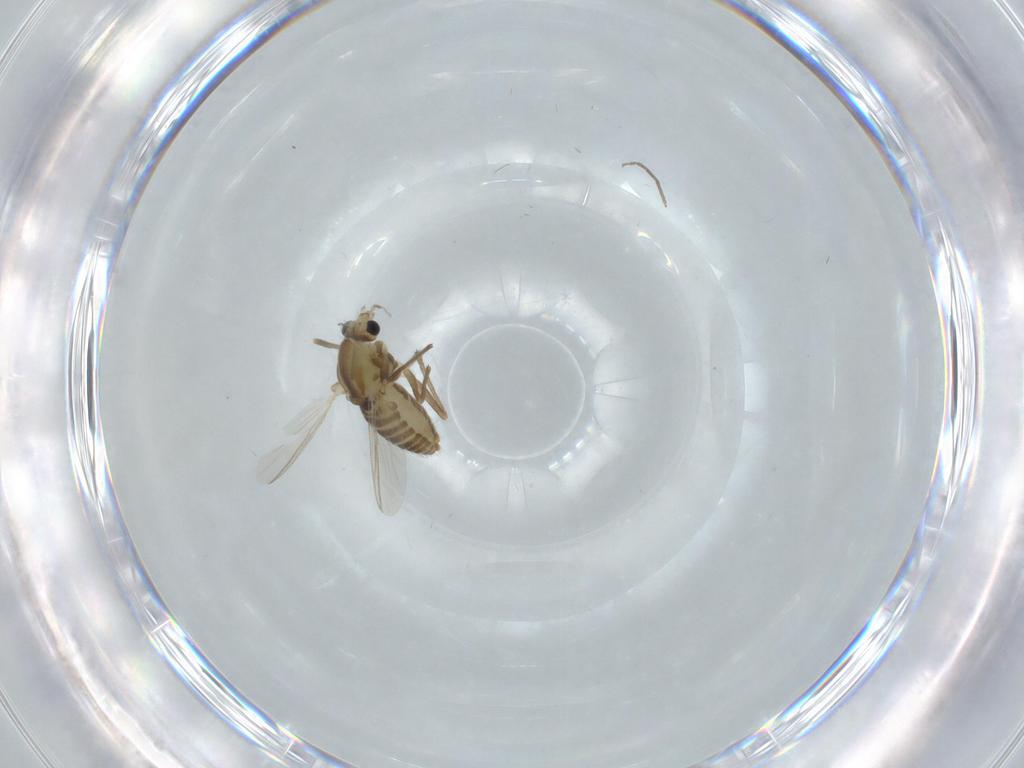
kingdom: Animalia
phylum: Arthropoda
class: Insecta
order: Diptera
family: Chironomidae
